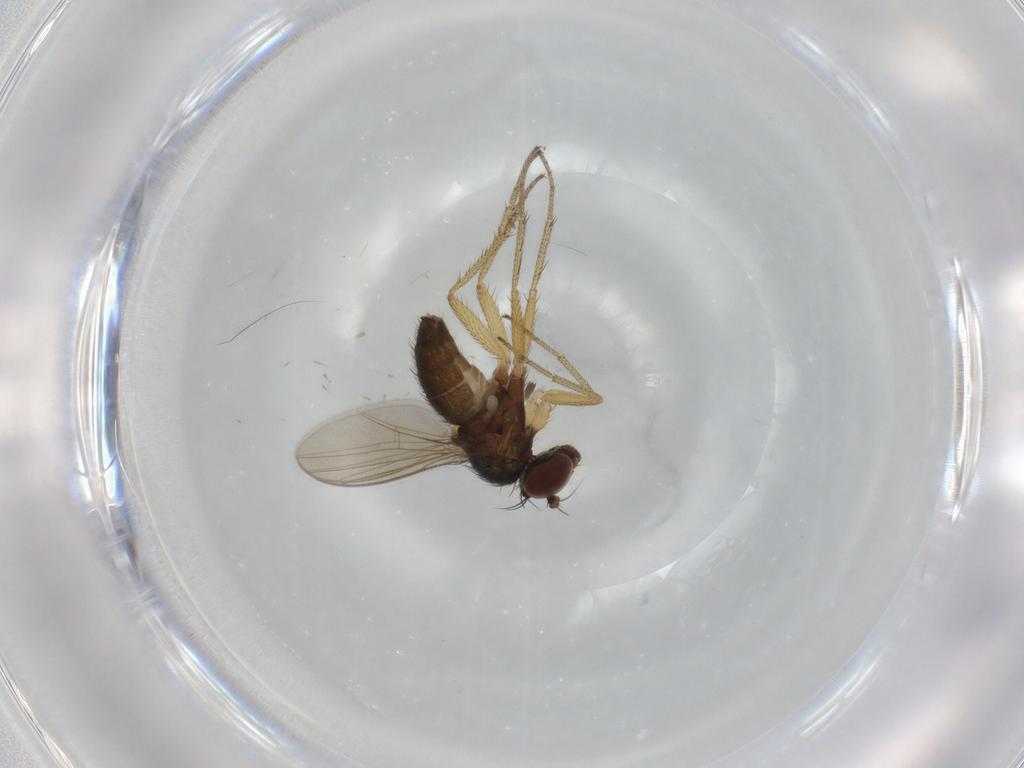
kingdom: Animalia
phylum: Arthropoda
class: Insecta
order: Diptera
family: Dolichopodidae
